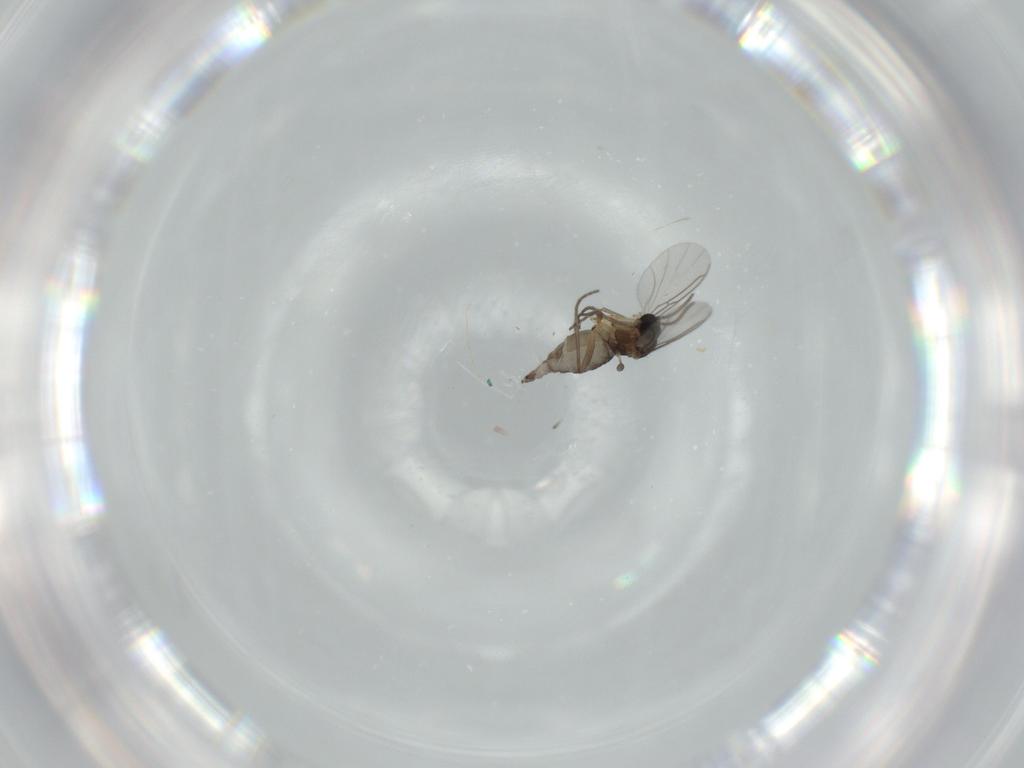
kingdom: Animalia
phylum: Arthropoda
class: Insecta
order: Diptera
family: Sciaridae
